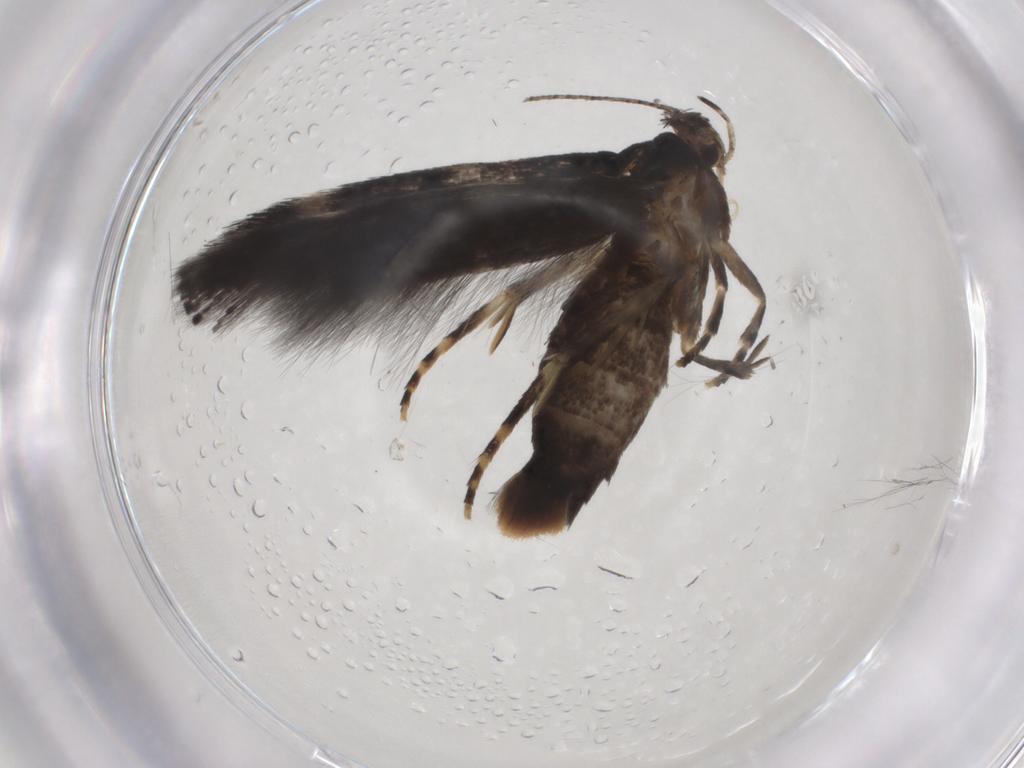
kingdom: Animalia
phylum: Arthropoda
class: Insecta
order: Lepidoptera
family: Elachistidae
